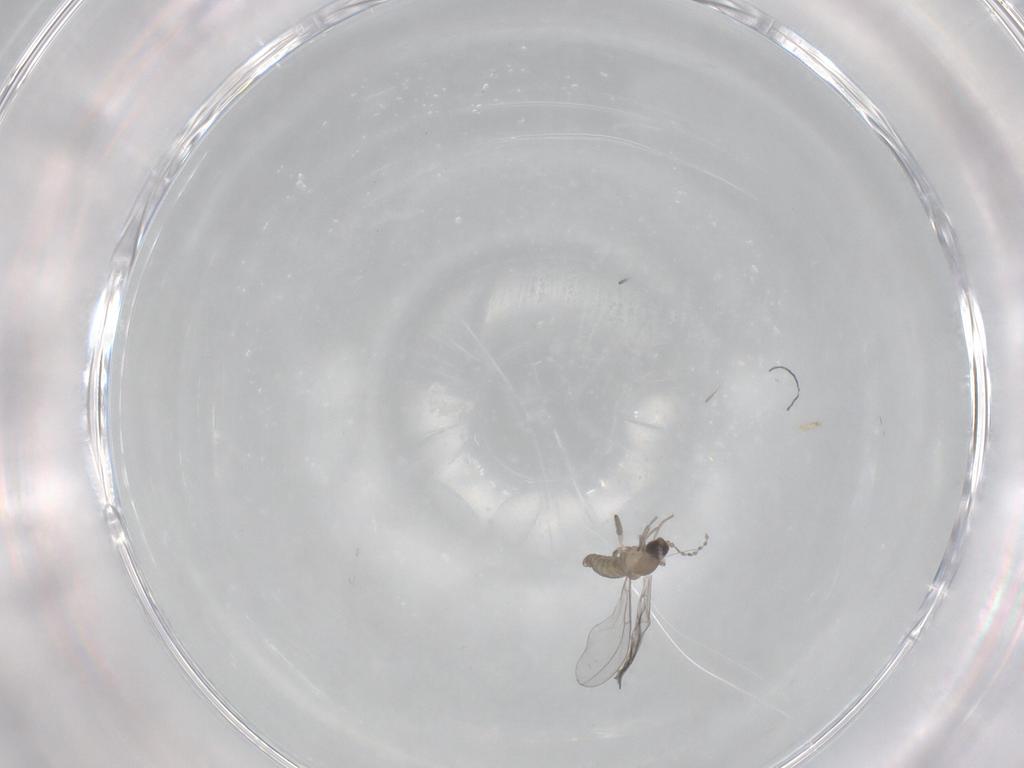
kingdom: Animalia
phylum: Arthropoda
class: Insecta
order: Diptera
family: Cecidomyiidae
